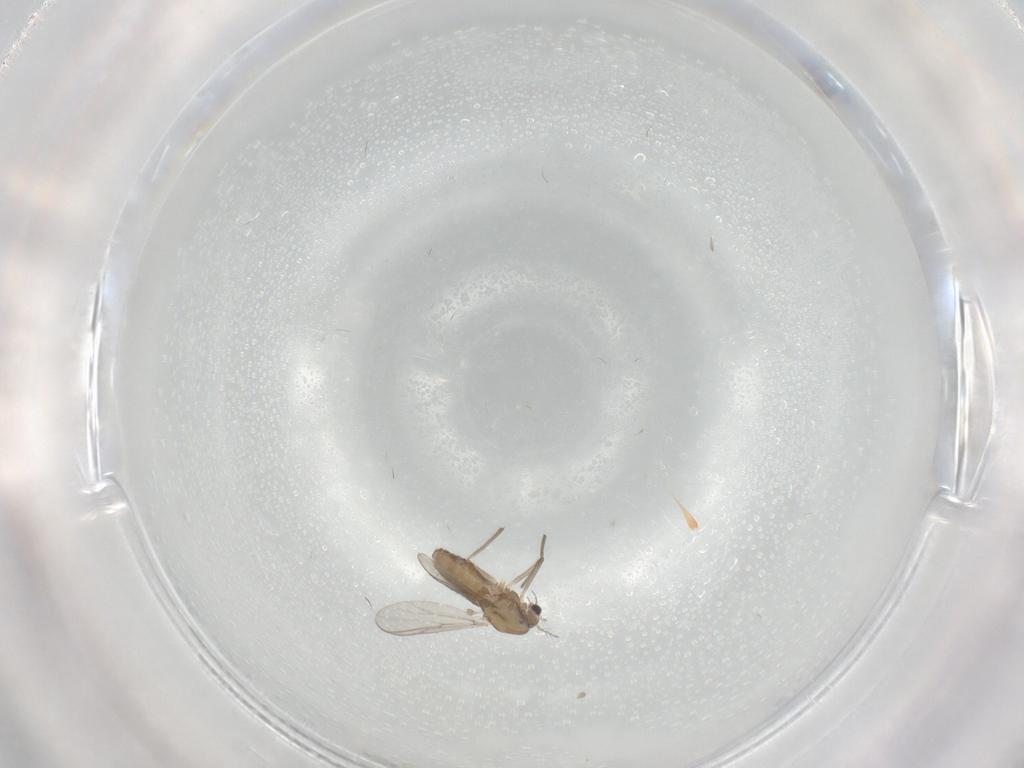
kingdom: Animalia
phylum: Arthropoda
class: Insecta
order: Diptera
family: Chironomidae
